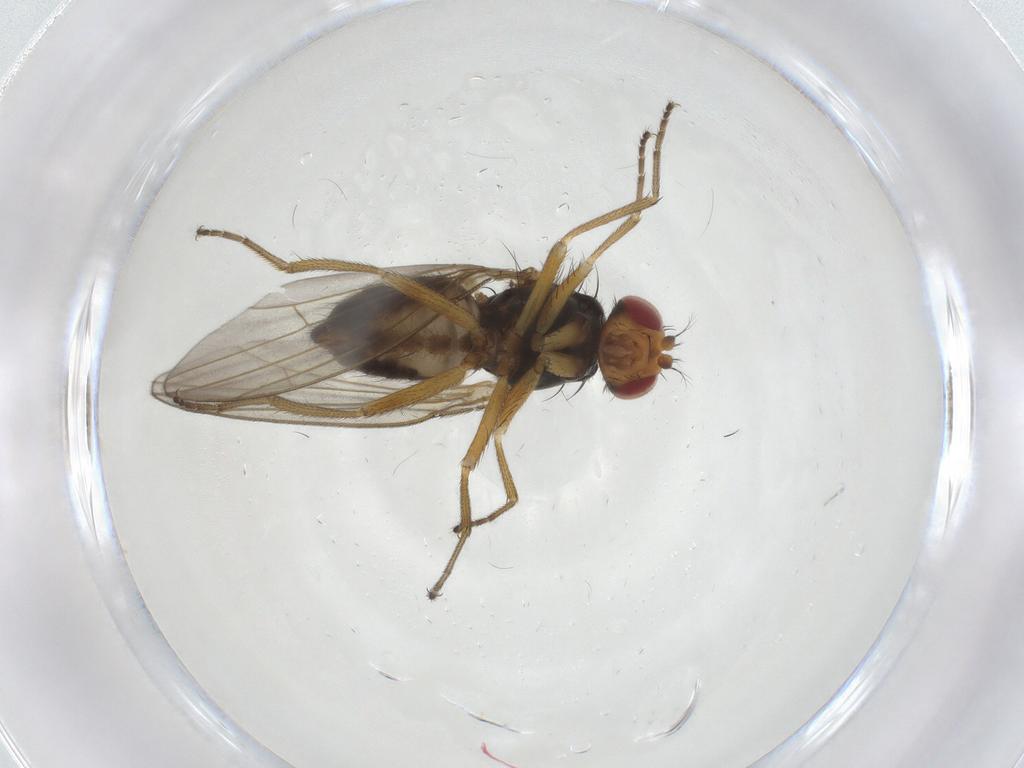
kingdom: Animalia
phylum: Arthropoda
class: Insecta
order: Diptera
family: Drosophilidae
